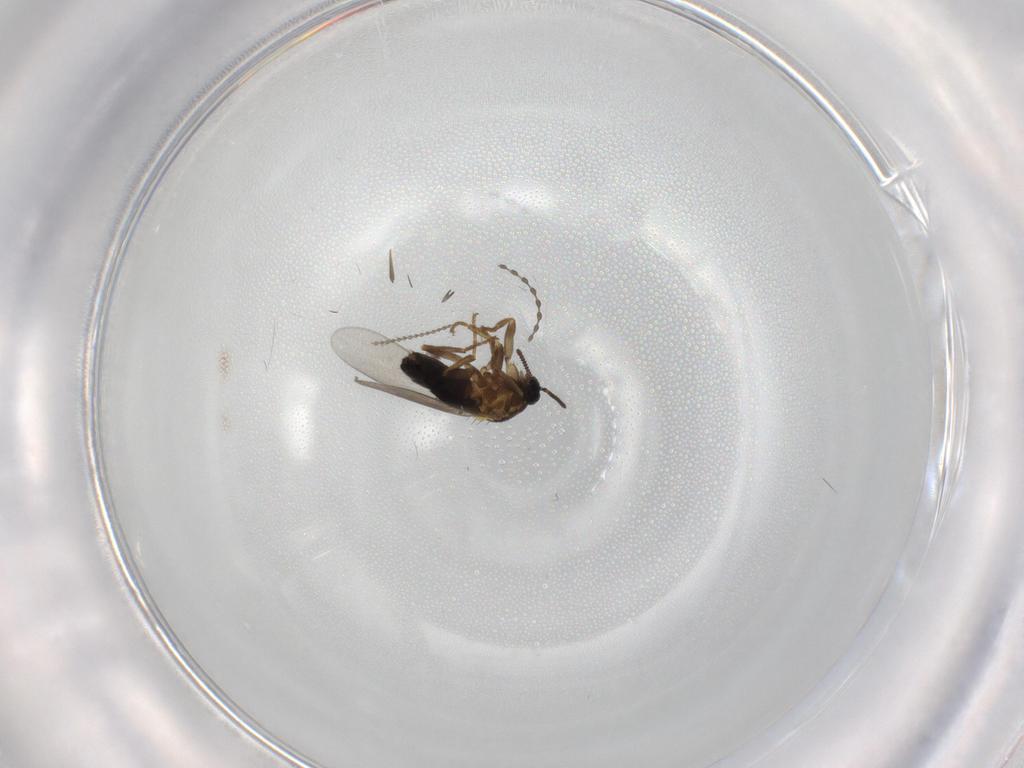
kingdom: Animalia
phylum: Arthropoda
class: Insecta
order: Diptera
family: Scatopsidae
